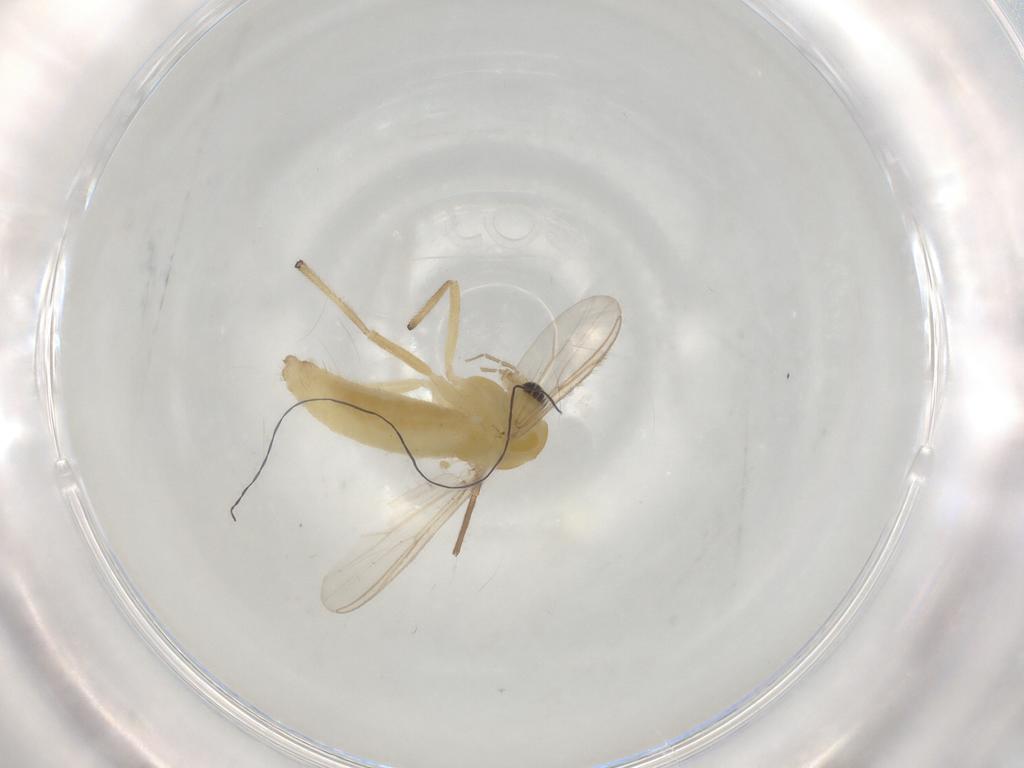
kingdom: Animalia
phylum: Arthropoda
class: Insecta
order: Diptera
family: Chironomidae
